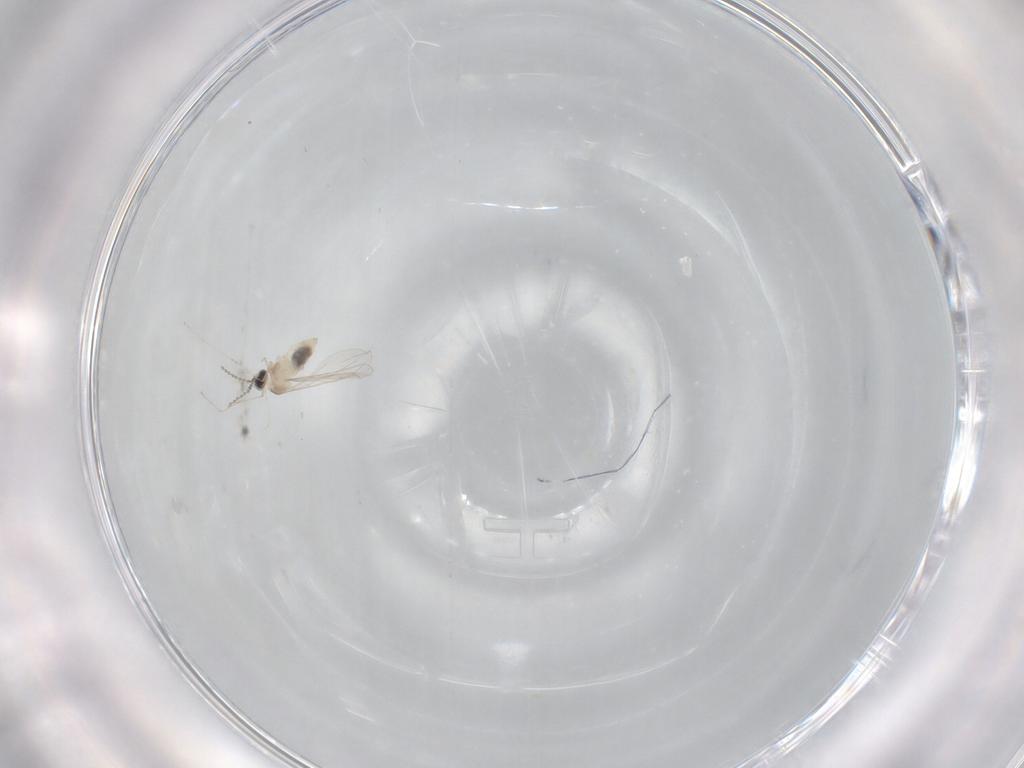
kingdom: Animalia
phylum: Arthropoda
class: Insecta
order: Diptera
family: Cecidomyiidae
